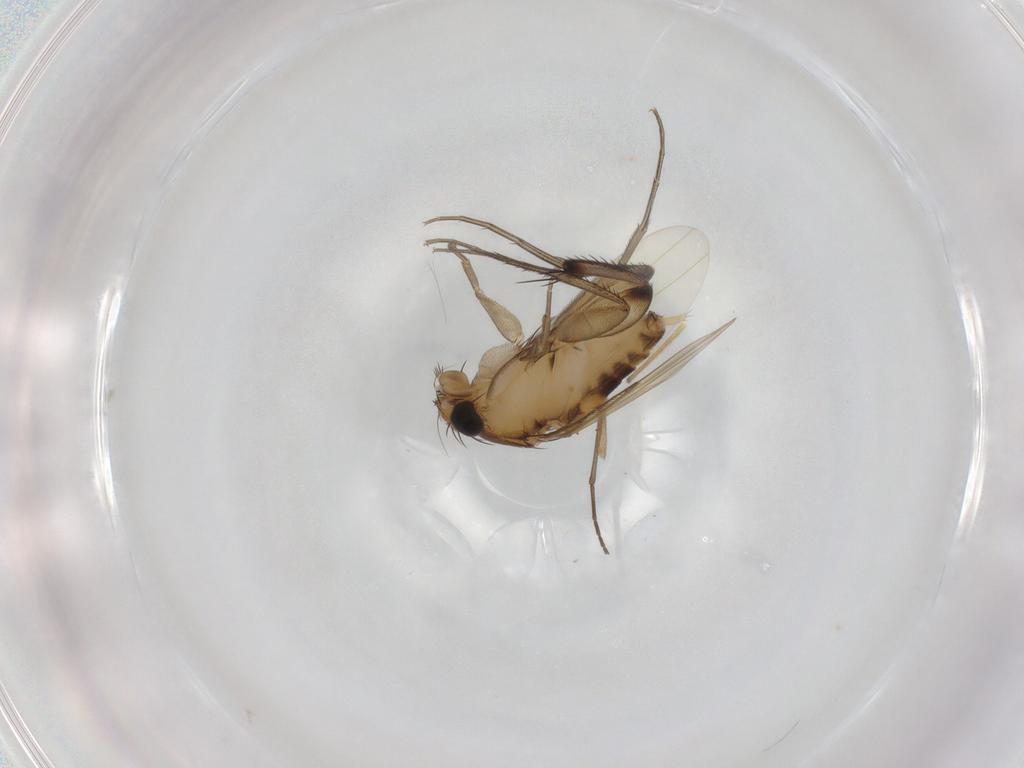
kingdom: Animalia
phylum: Arthropoda
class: Insecta
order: Diptera
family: Phoridae
